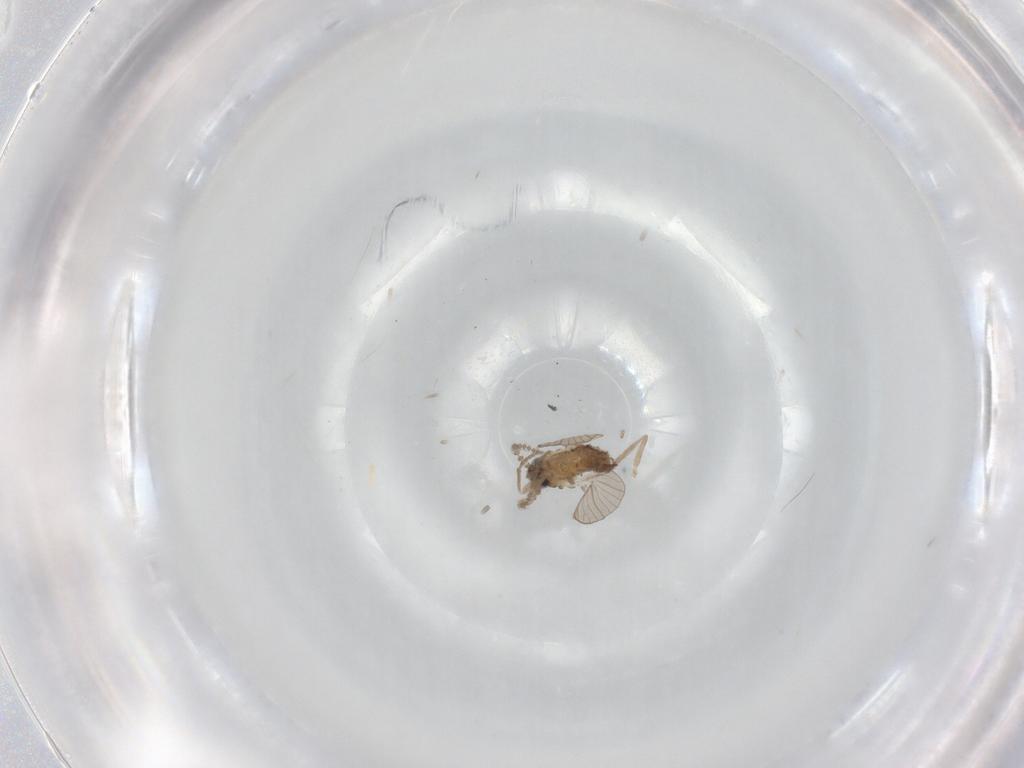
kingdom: Animalia
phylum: Arthropoda
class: Insecta
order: Diptera
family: Psychodidae
